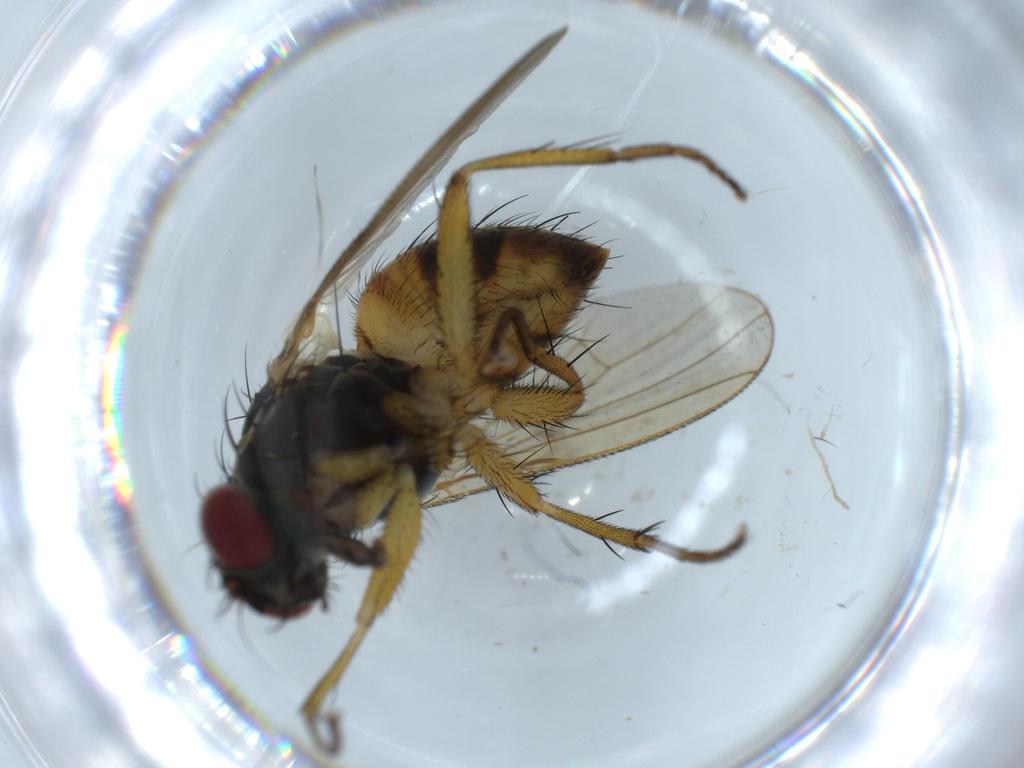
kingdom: Animalia
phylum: Arthropoda
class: Insecta
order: Diptera
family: Muscidae
